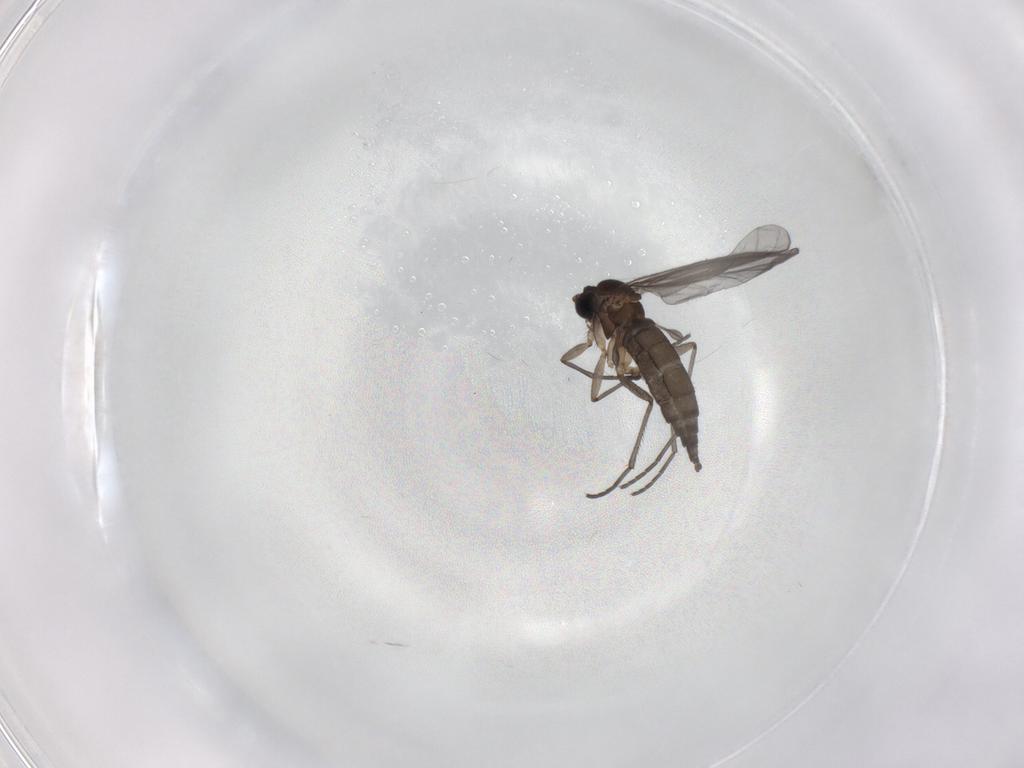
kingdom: Animalia
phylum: Arthropoda
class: Insecta
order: Diptera
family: Sciaridae
